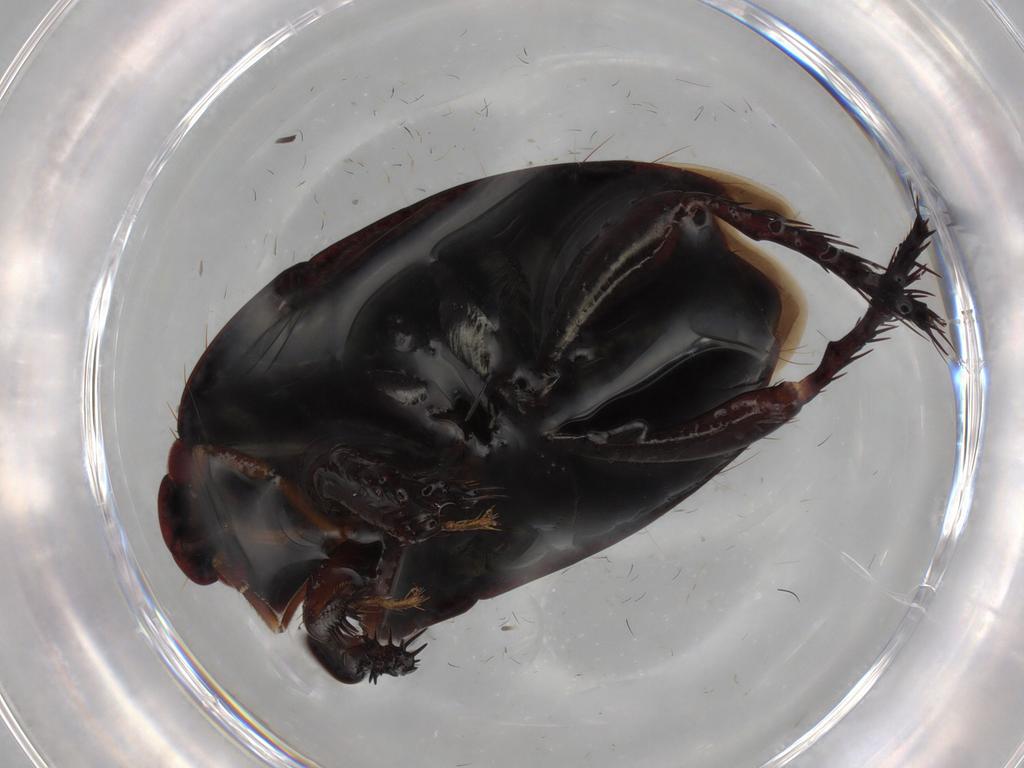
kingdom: Animalia
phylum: Arthropoda
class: Insecta
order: Hemiptera
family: Cydnidae
